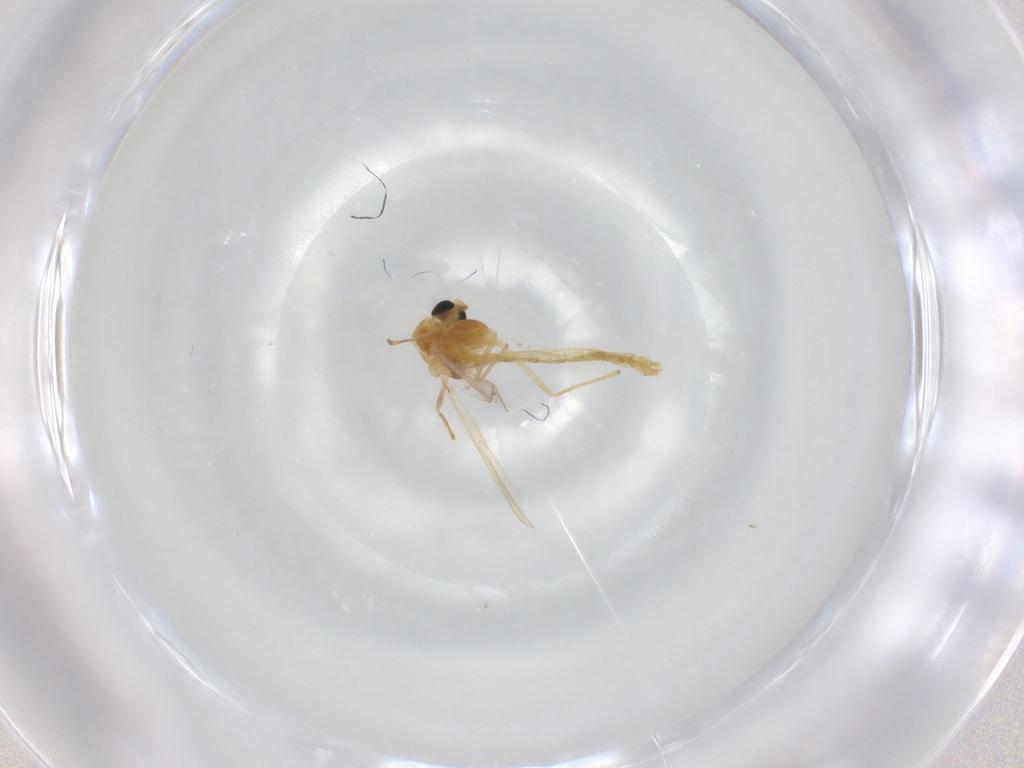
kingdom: Animalia
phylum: Arthropoda
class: Insecta
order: Diptera
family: Chironomidae
